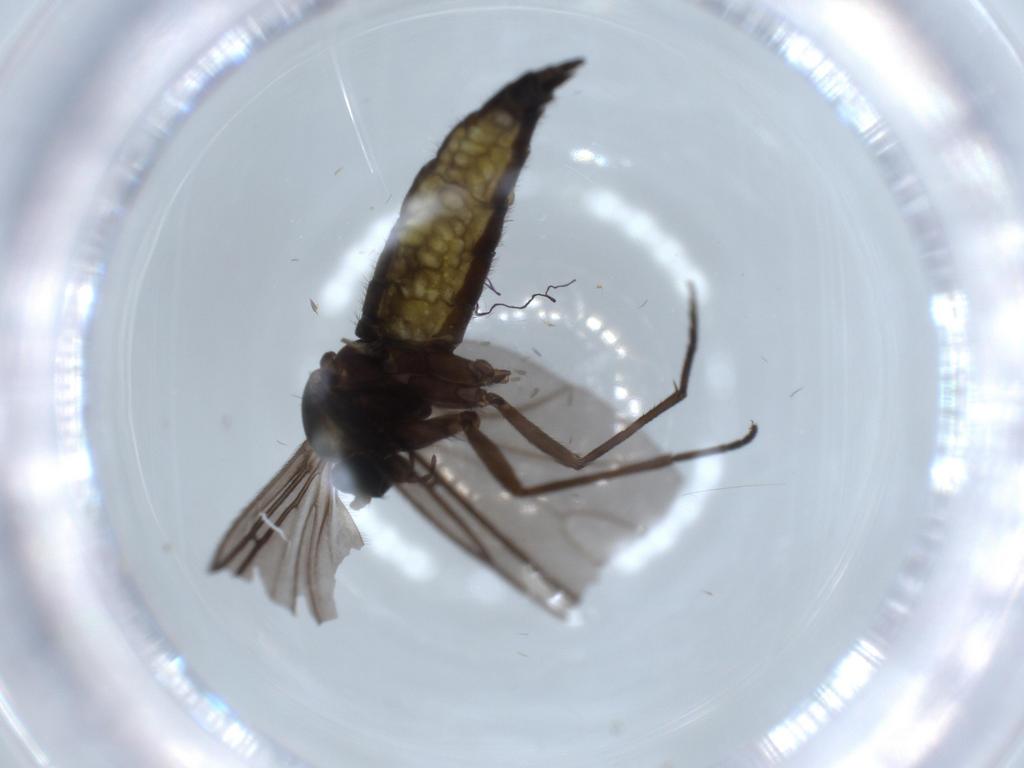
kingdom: Animalia
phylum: Arthropoda
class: Insecta
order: Diptera
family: Sciaridae
